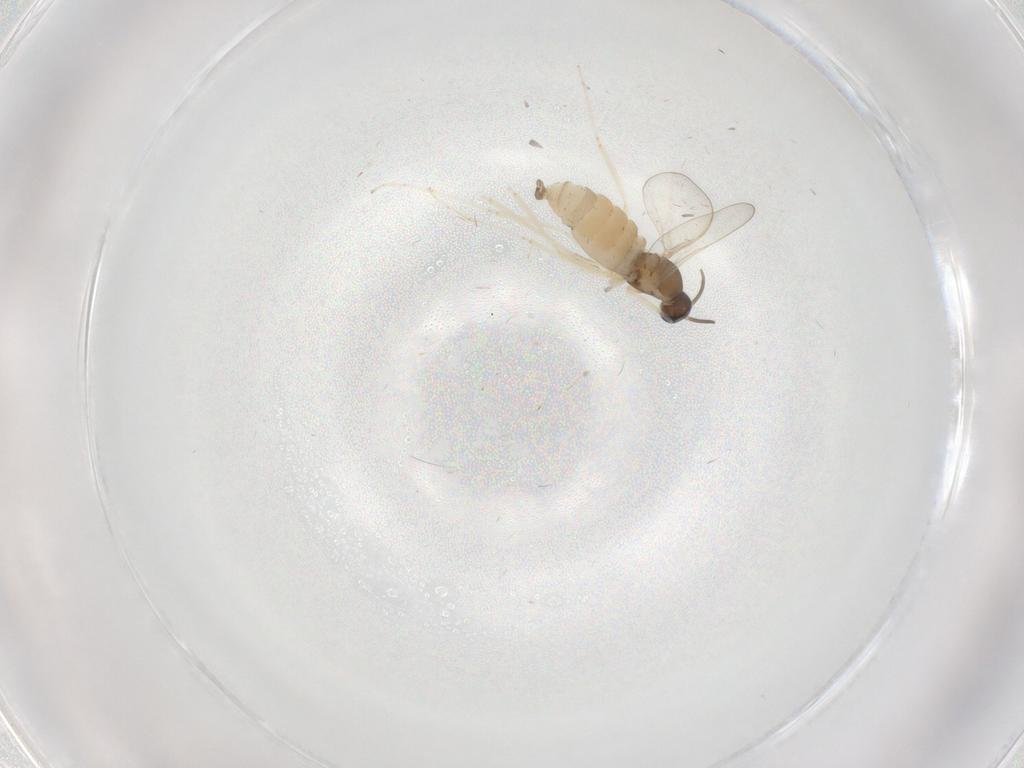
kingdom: Animalia
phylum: Arthropoda
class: Insecta
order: Diptera
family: Cecidomyiidae
